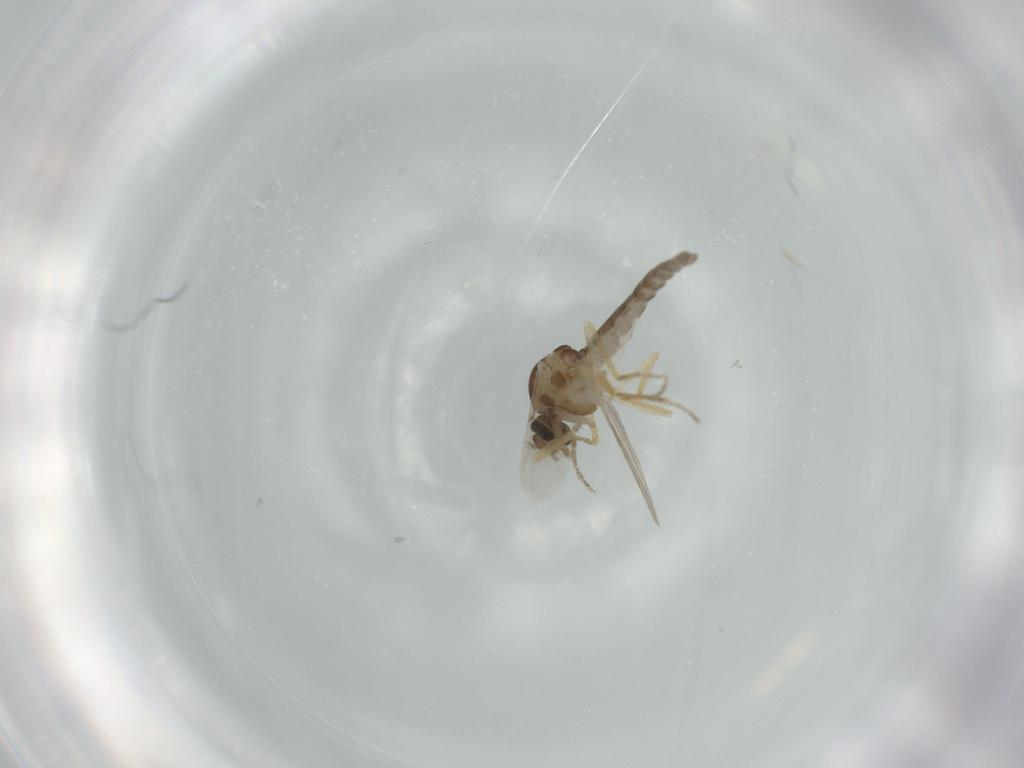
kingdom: Animalia
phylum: Arthropoda
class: Insecta
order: Diptera
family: Ceratopogonidae
